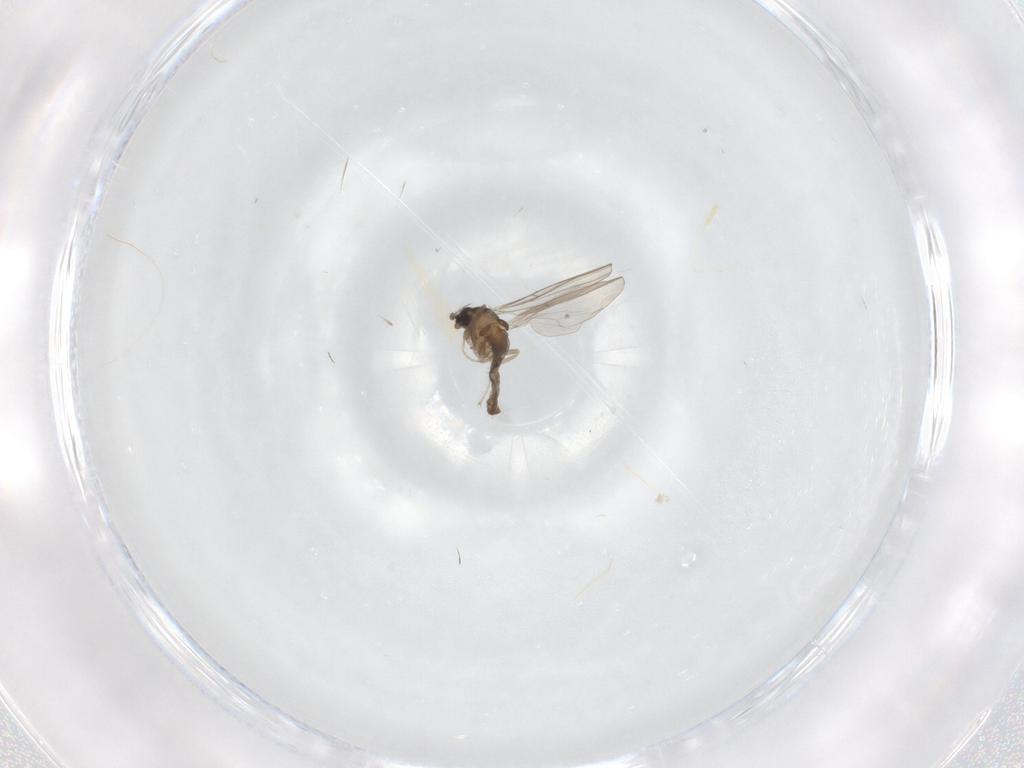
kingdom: Animalia
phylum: Arthropoda
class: Insecta
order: Diptera
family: Cecidomyiidae
